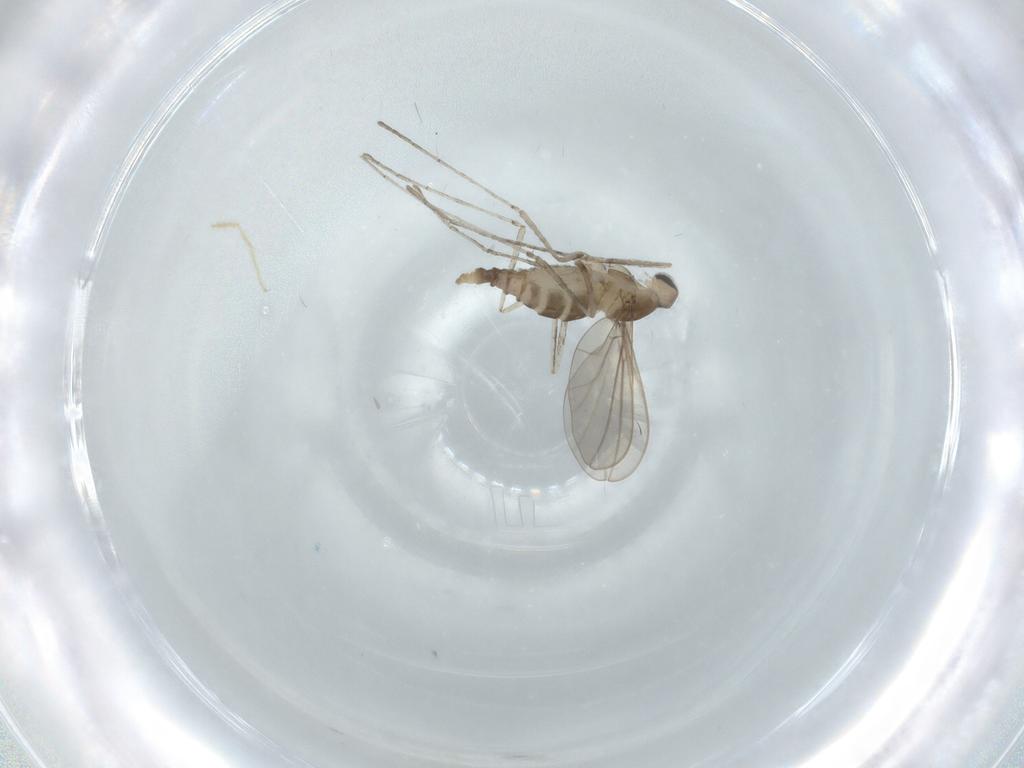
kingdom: Animalia
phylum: Arthropoda
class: Insecta
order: Diptera
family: Cecidomyiidae
